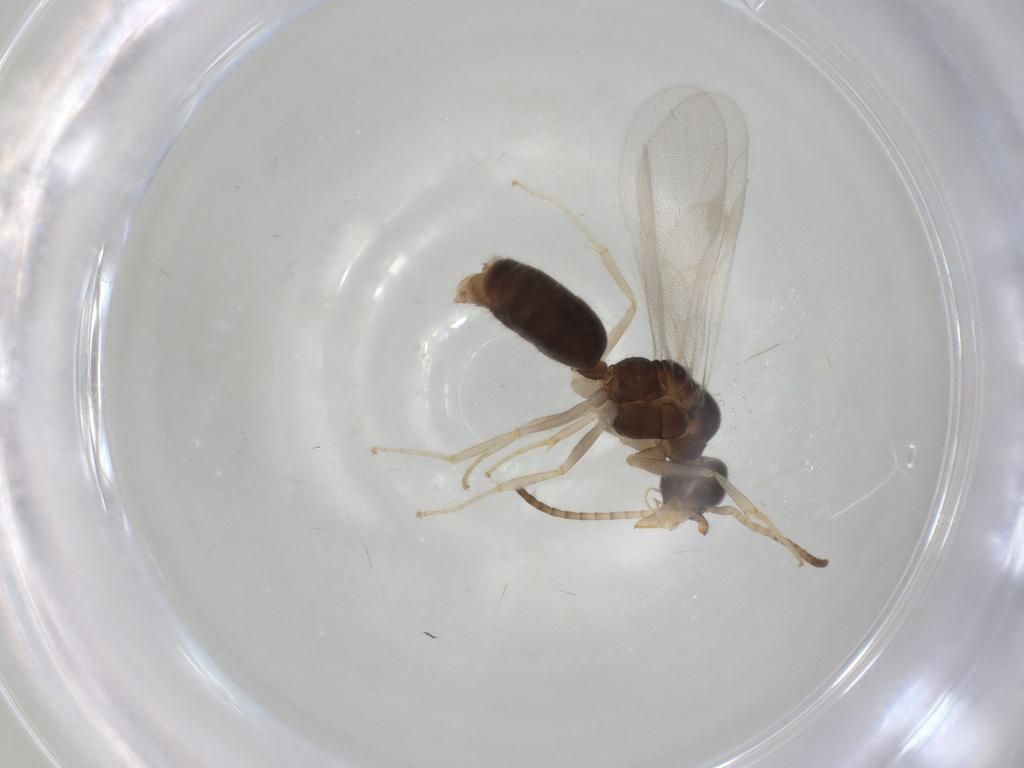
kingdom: Animalia
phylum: Arthropoda
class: Insecta
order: Hymenoptera
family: Formicidae
